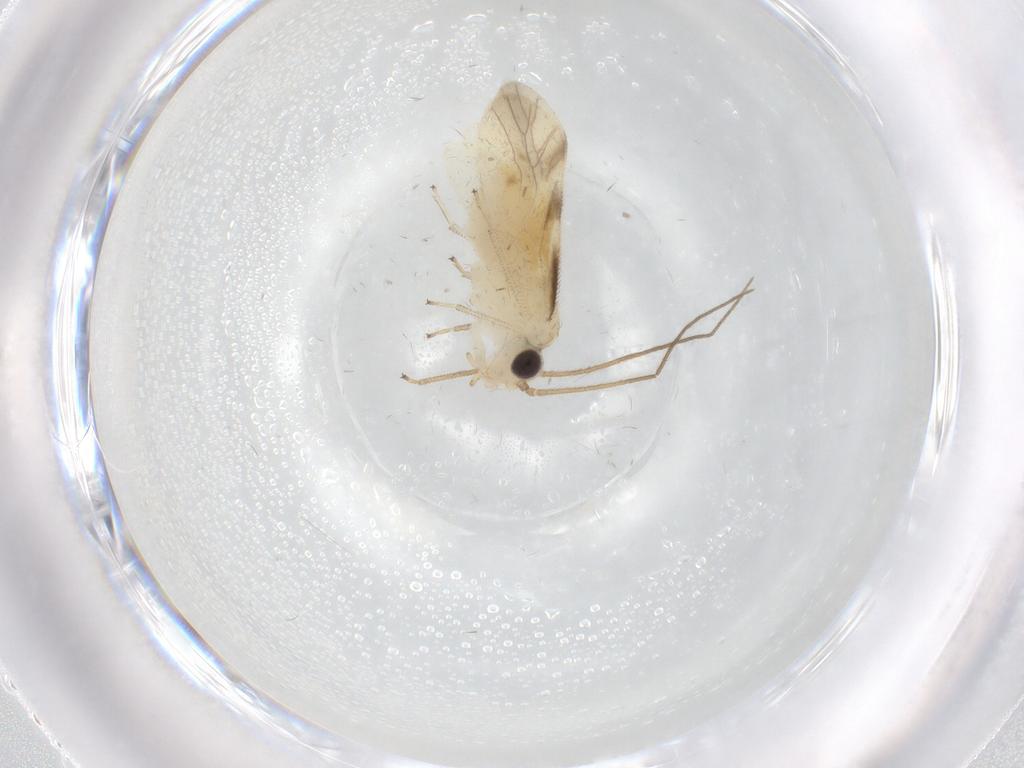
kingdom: Animalia
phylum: Arthropoda
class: Insecta
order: Psocodea
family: Caeciliusidae
